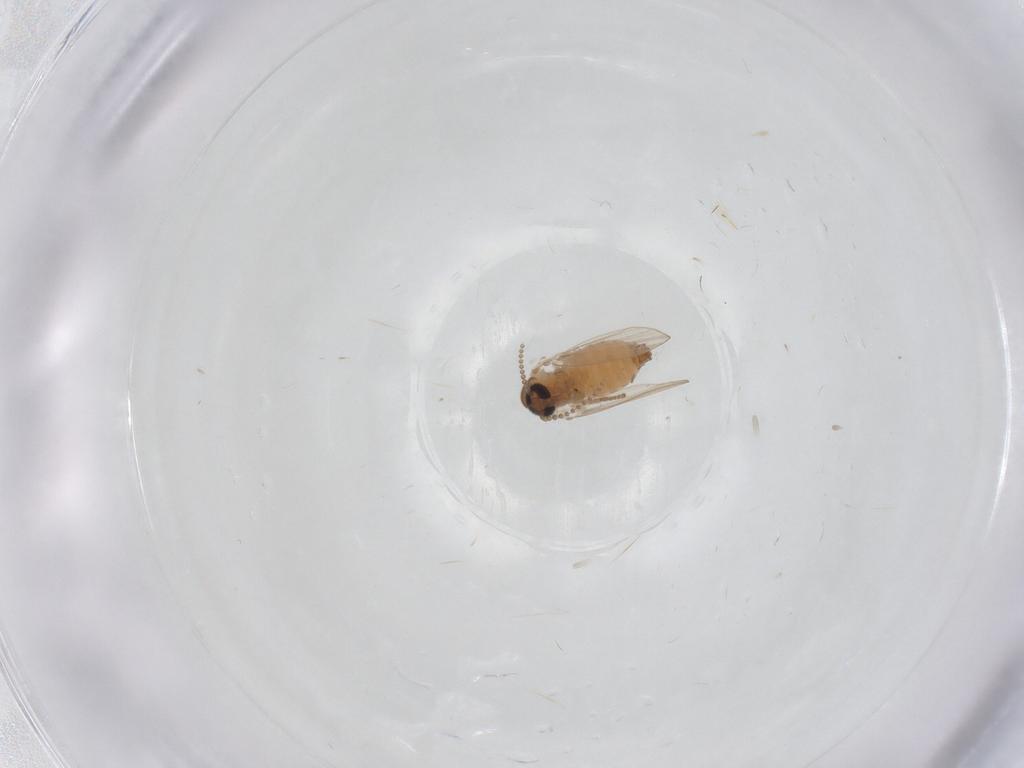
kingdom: Animalia
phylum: Arthropoda
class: Insecta
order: Diptera
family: Psychodidae
